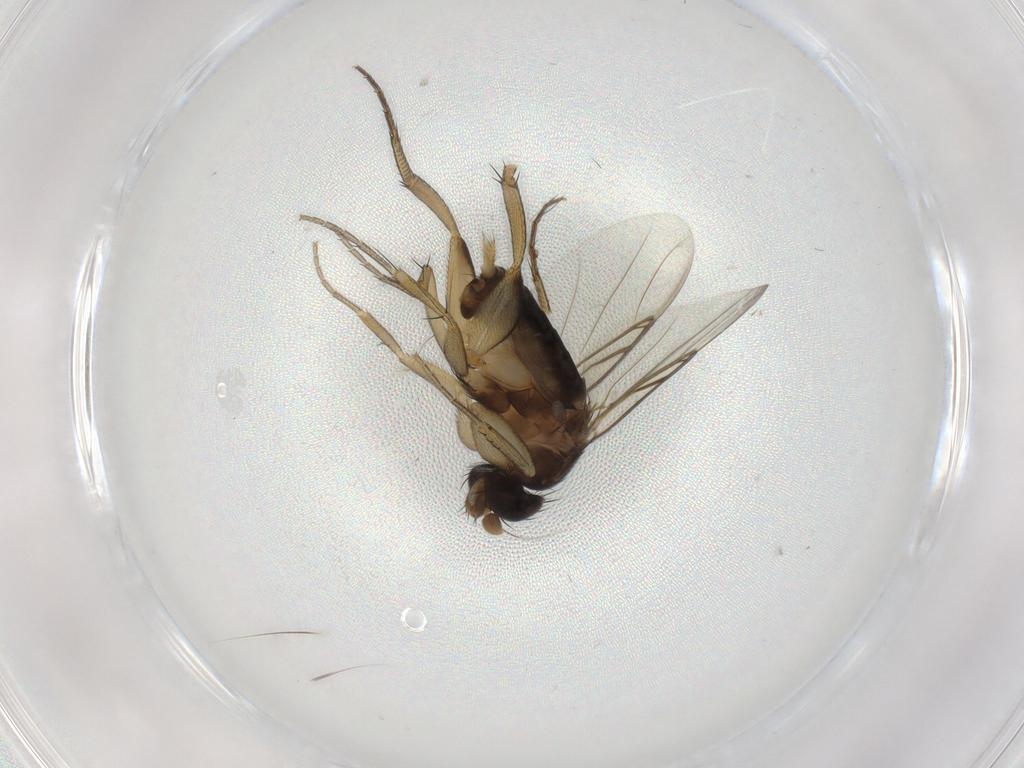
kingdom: Animalia
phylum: Arthropoda
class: Insecta
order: Diptera
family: Phoridae
